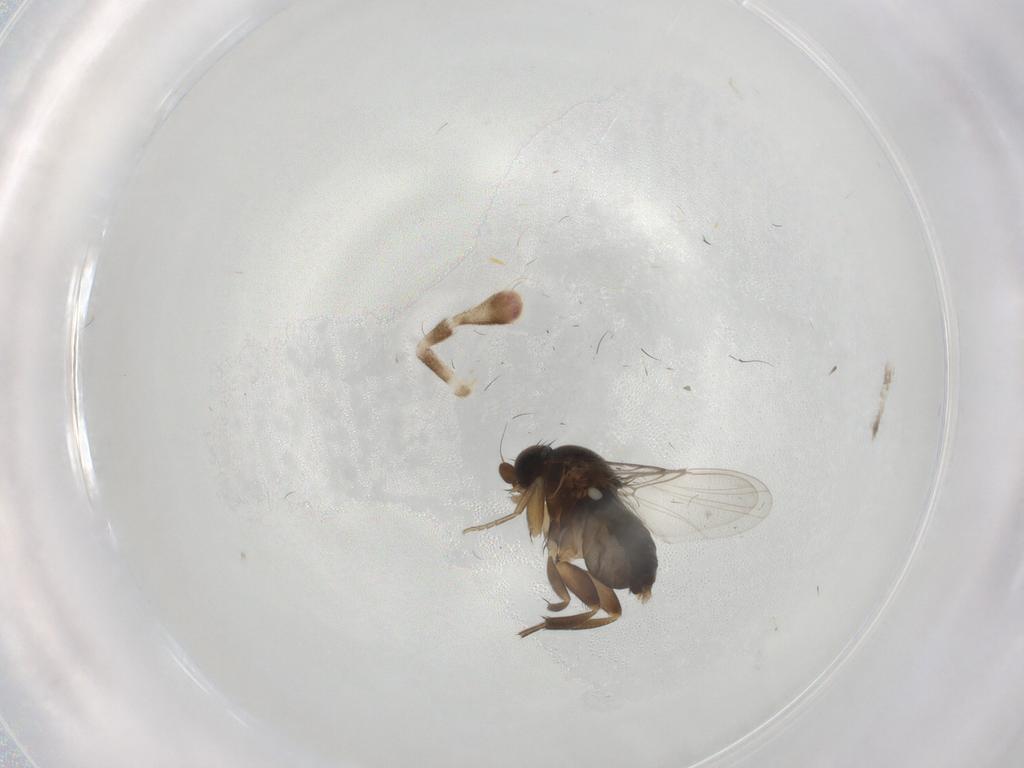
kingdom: Animalia
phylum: Arthropoda
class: Insecta
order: Diptera
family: Phoridae
